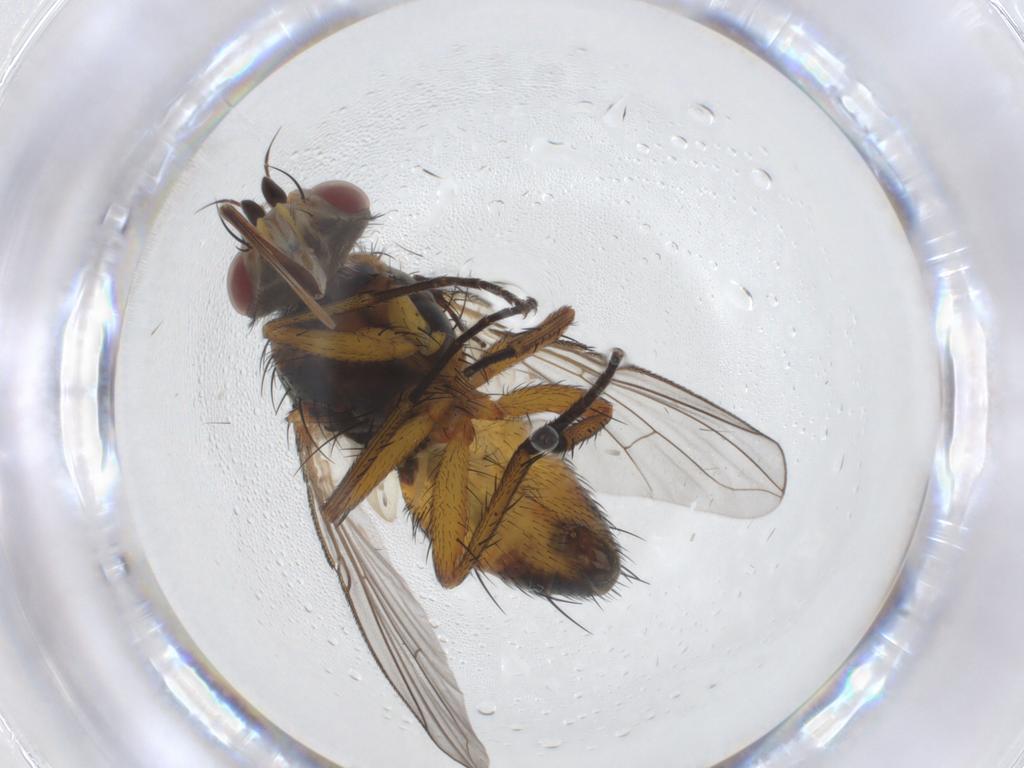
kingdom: Animalia
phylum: Arthropoda
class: Insecta
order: Diptera
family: Tachinidae
